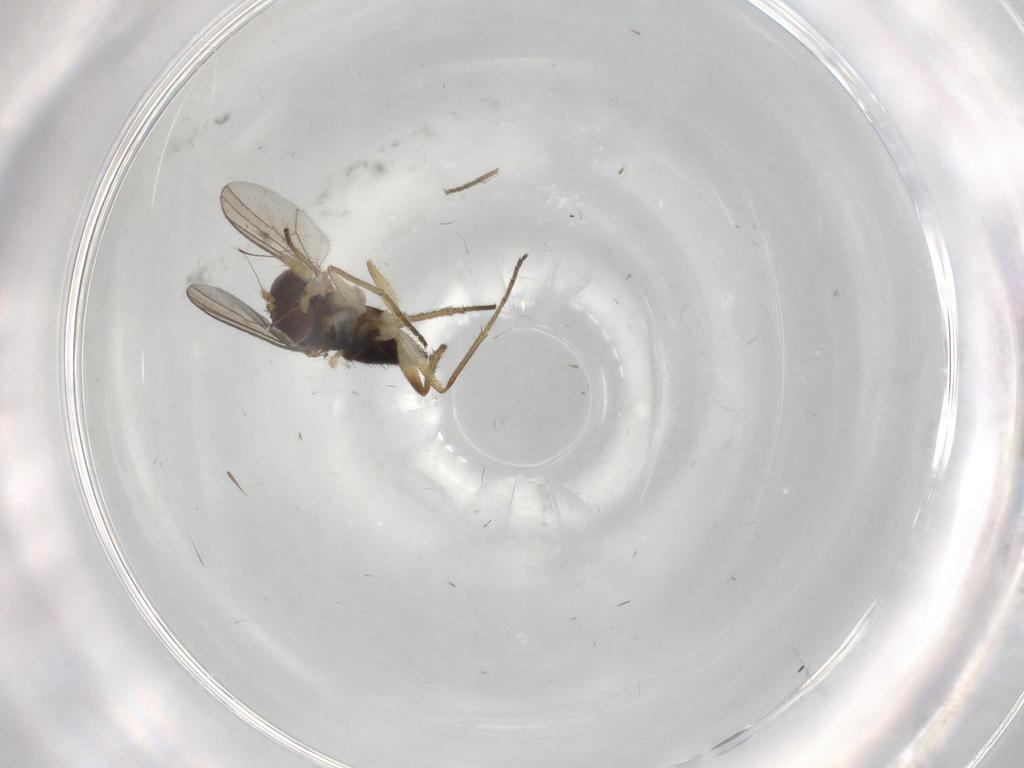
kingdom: Animalia
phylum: Arthropoda
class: Insecta
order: Diptera
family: Dolichopodidae
